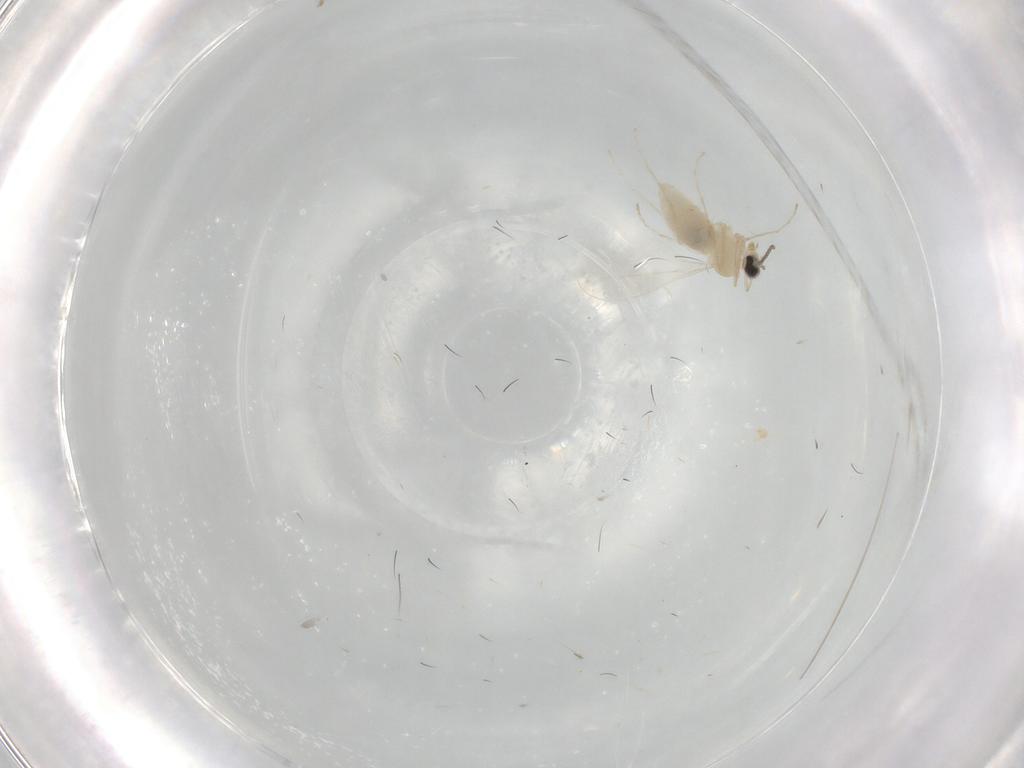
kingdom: Animalia
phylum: Arthropoda
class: Insecta
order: Diptera
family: Cecidomyiidae
